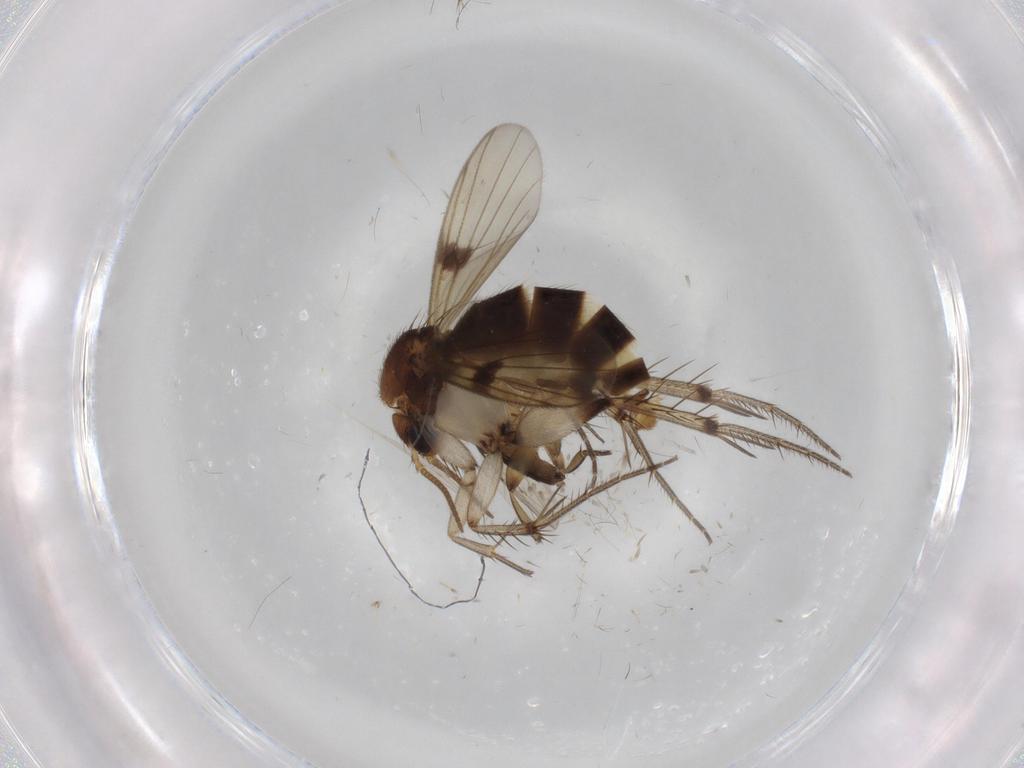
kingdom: Animalia
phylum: Arthropoda
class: Insecta
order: Diptera
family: Phoridae
